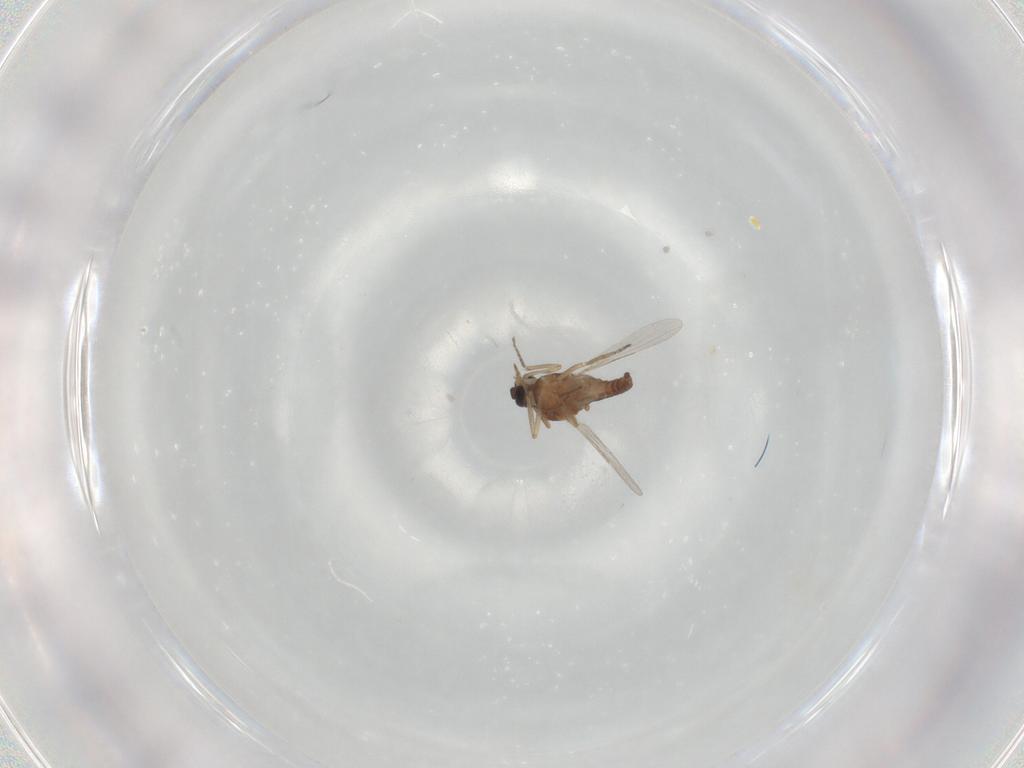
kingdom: Animalia
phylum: Arthropoda
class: Insecta
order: Diptera
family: Ceratopogonidae
